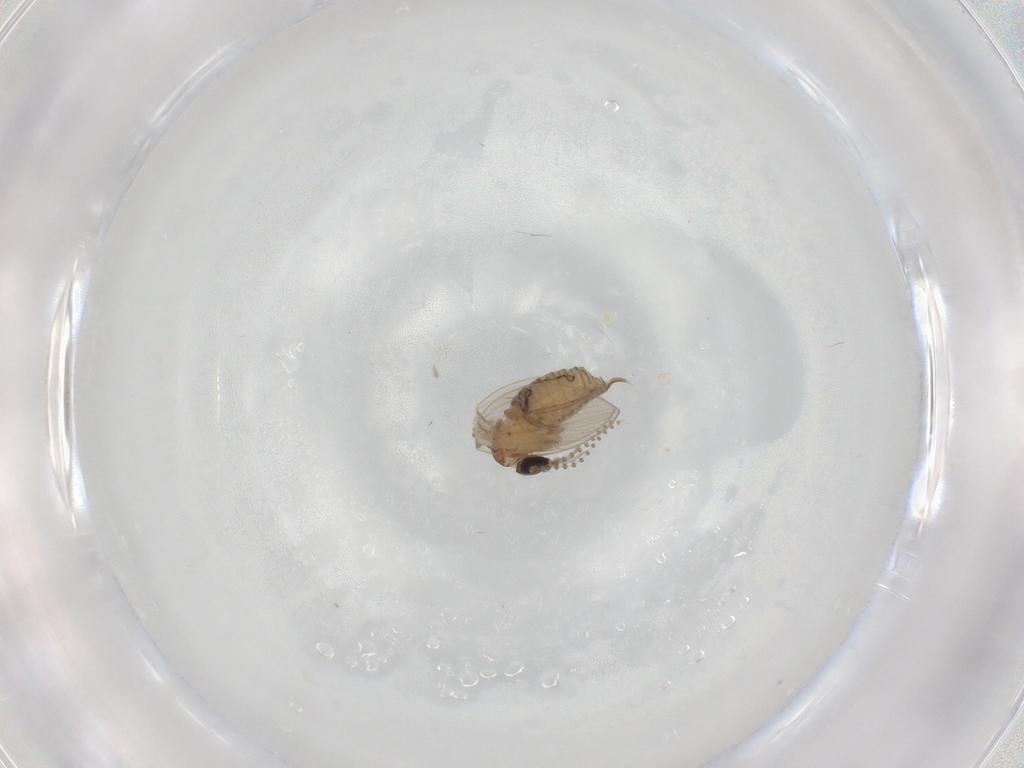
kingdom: Animalia
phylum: Arthropoda
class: Insecta
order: Diptera
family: Psychodidae
